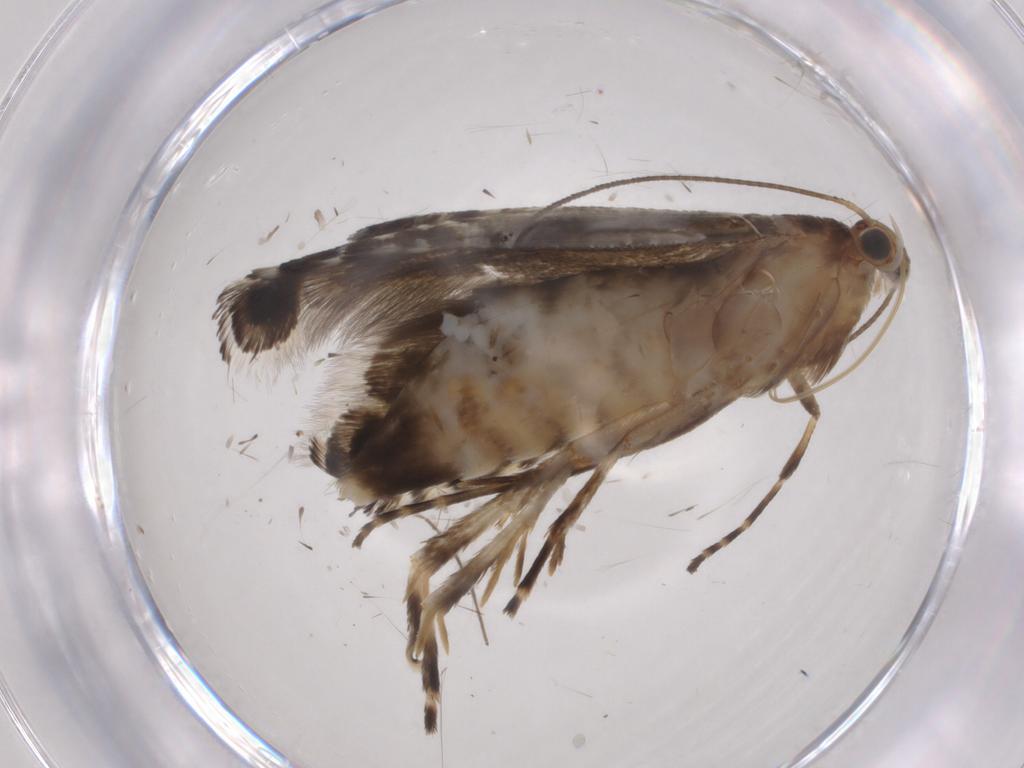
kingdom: Animalia
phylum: Arthropoda
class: Insecta
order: Lepidoptera
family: Glyphipterigidae
